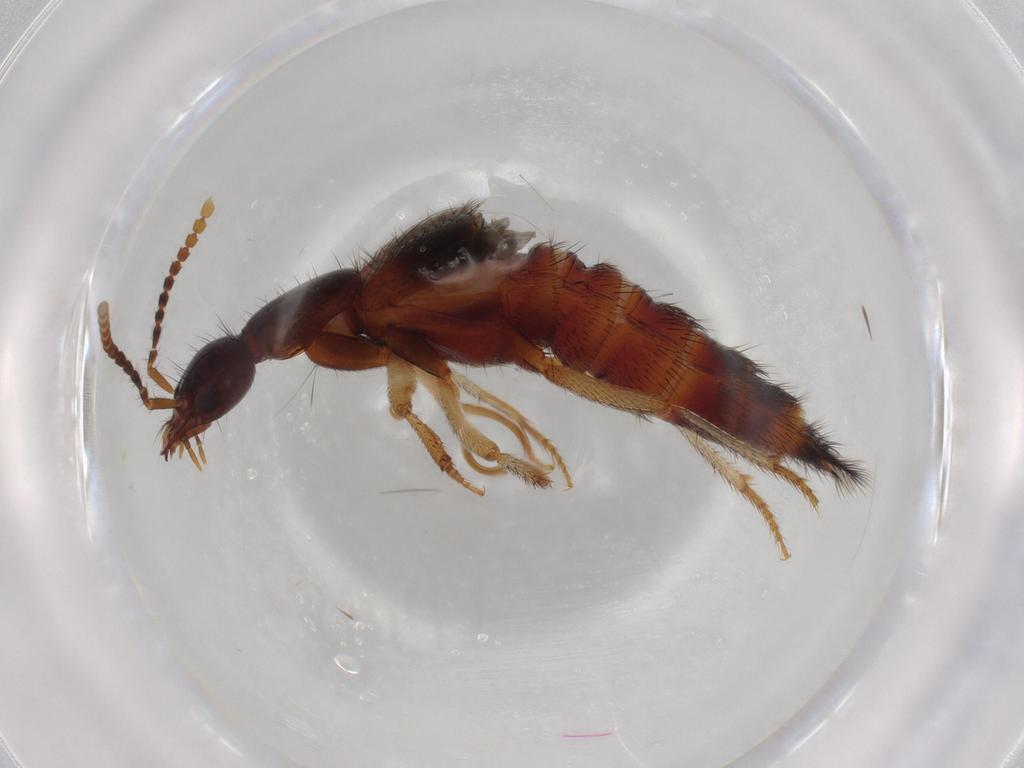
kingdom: Animalia
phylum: Arthropoda
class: Insecta
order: Coleoptera
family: Staphylinidae
